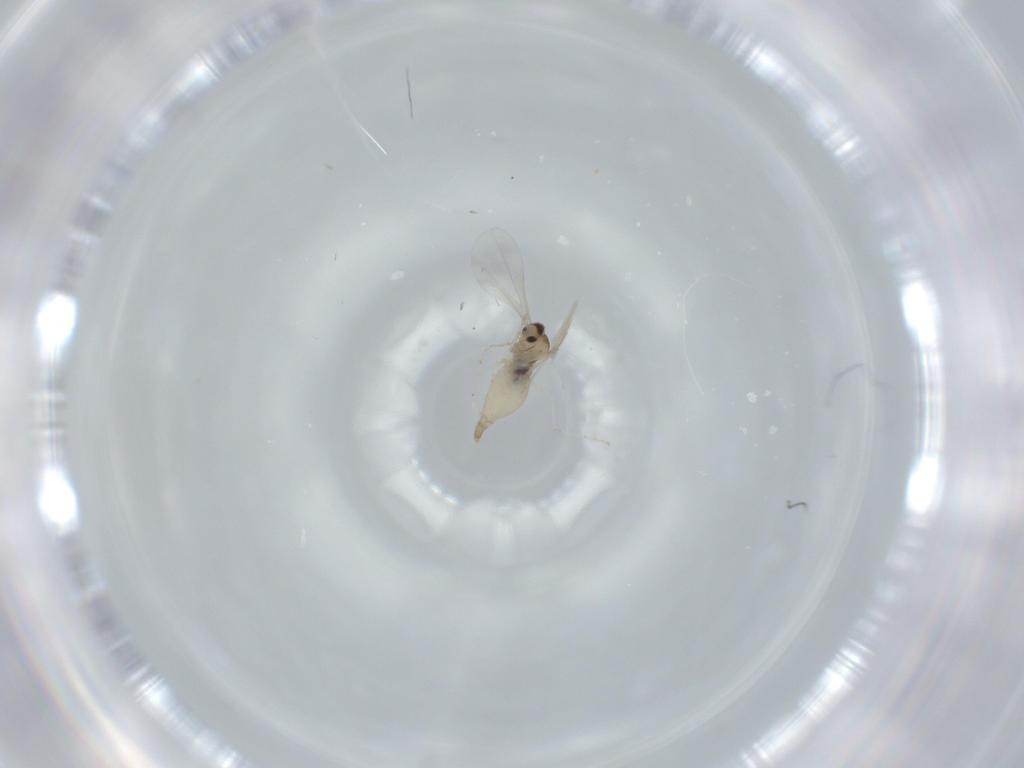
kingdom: Animalia
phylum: Arthropoda
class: Insecta
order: Diptera
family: Cecidomyiidae
